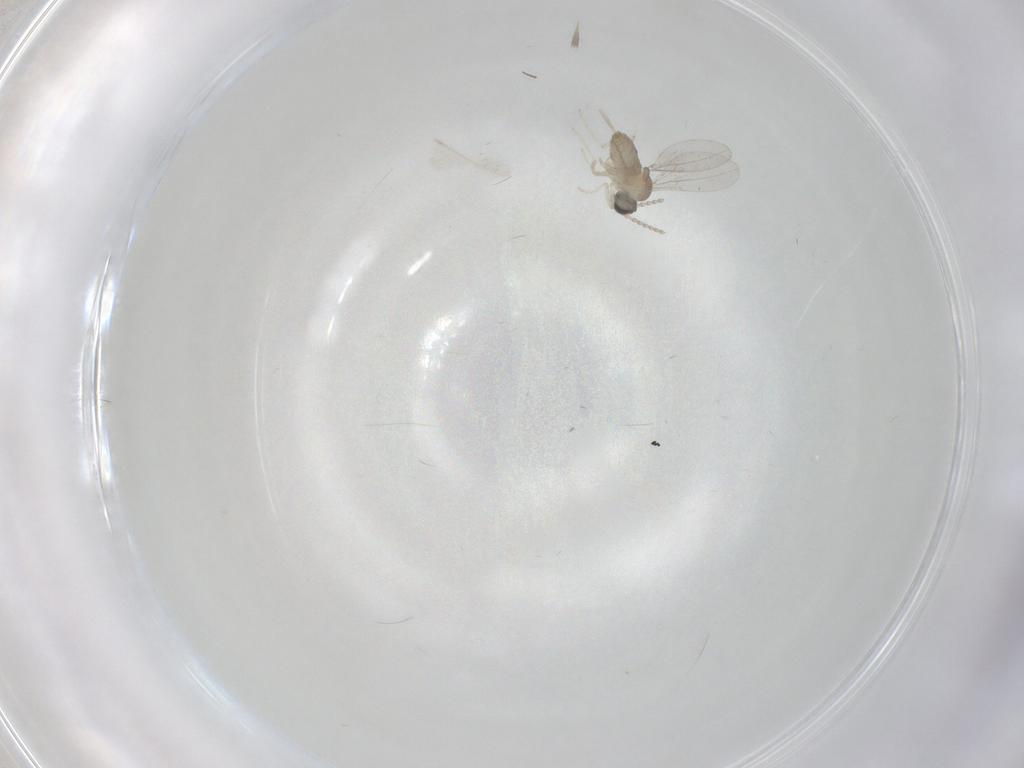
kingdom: Animalia
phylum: Arthropoda
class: Insecta
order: Diptera
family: Cecidomyiidae
